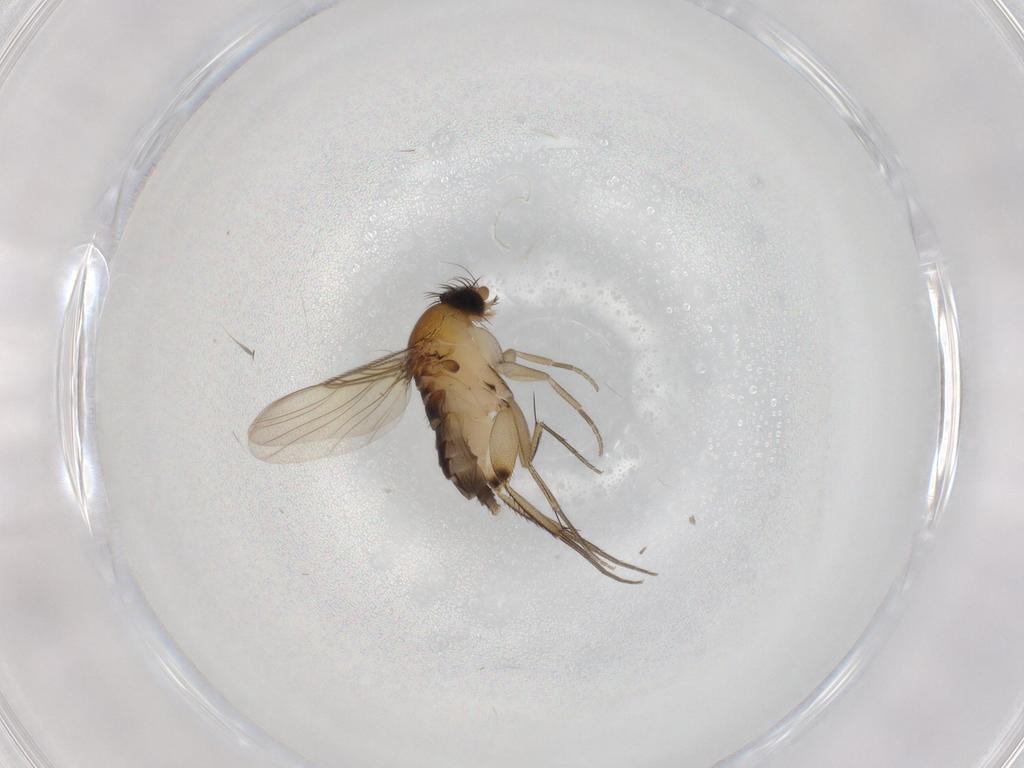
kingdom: Animalia
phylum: Arthropoda
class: Insecta
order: Diptera
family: Phoridae
